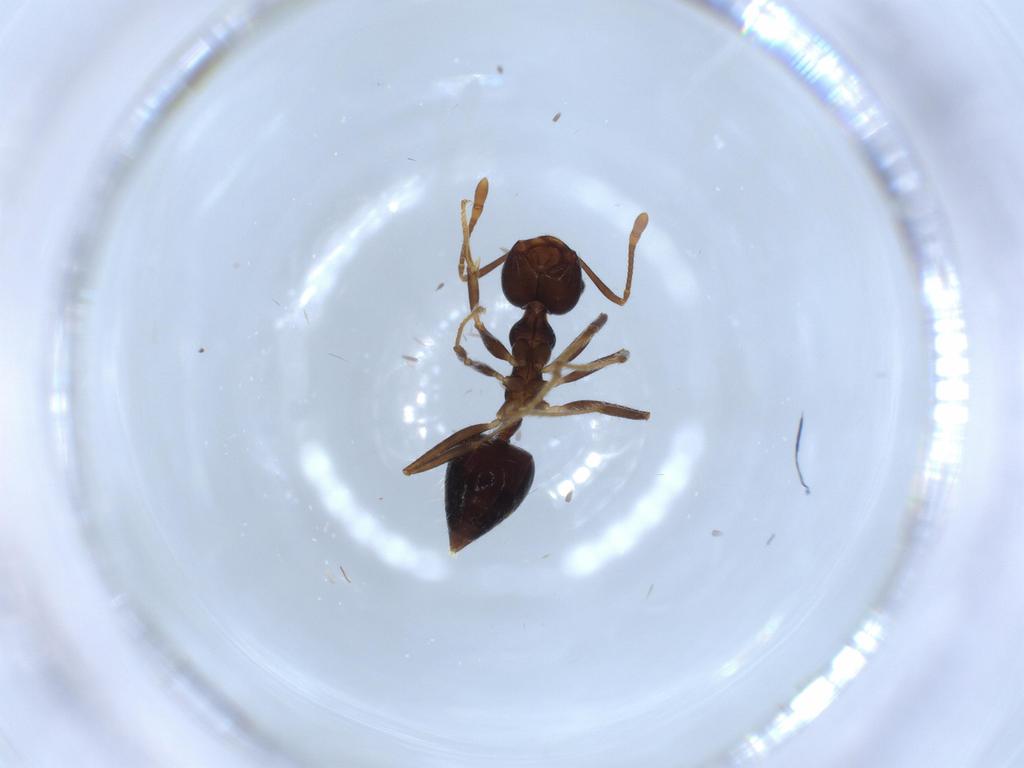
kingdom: Animalia
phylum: Arthropoda
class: Insecta
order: Hymenoptera
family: Formicidae
